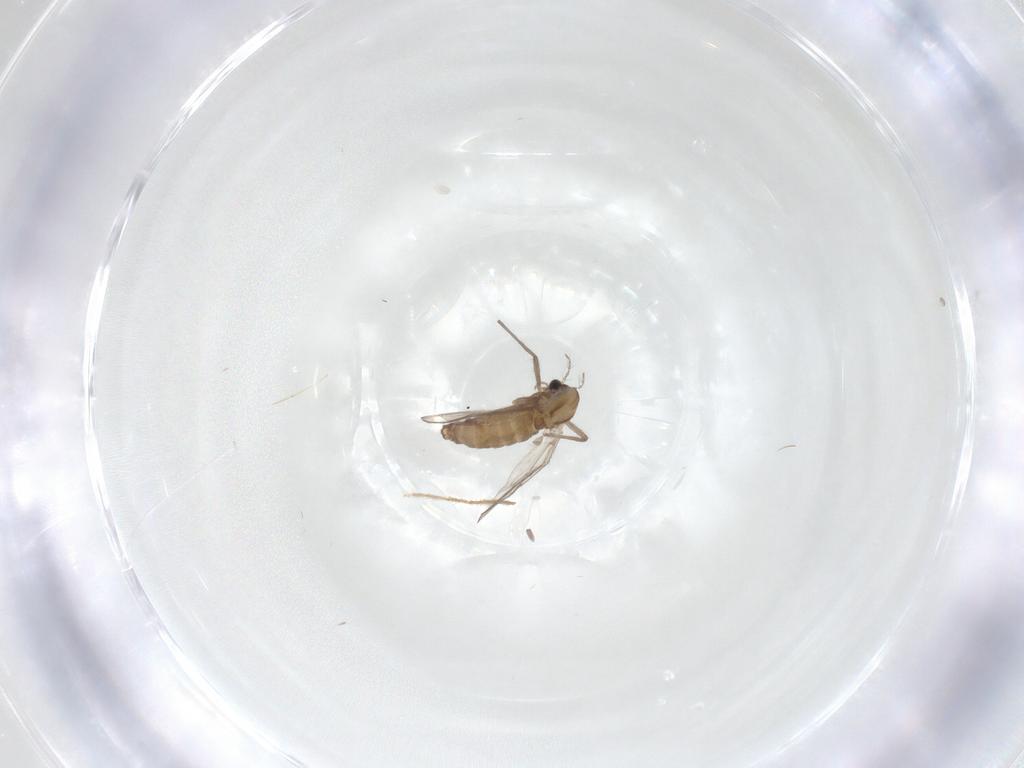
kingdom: Animalia
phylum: Arthropoda
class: Insecta
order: Diptera
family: Chironomidae
